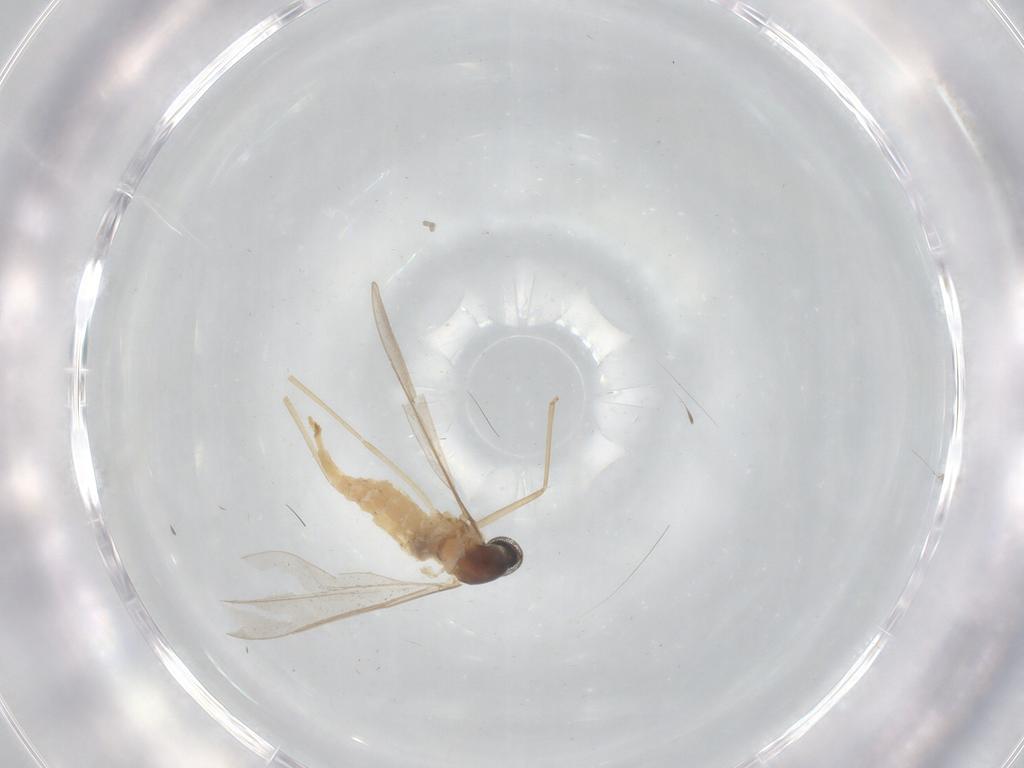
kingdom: Animalia
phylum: Arthropoda
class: Insecta
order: Diptera
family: Cecidomyiidae
